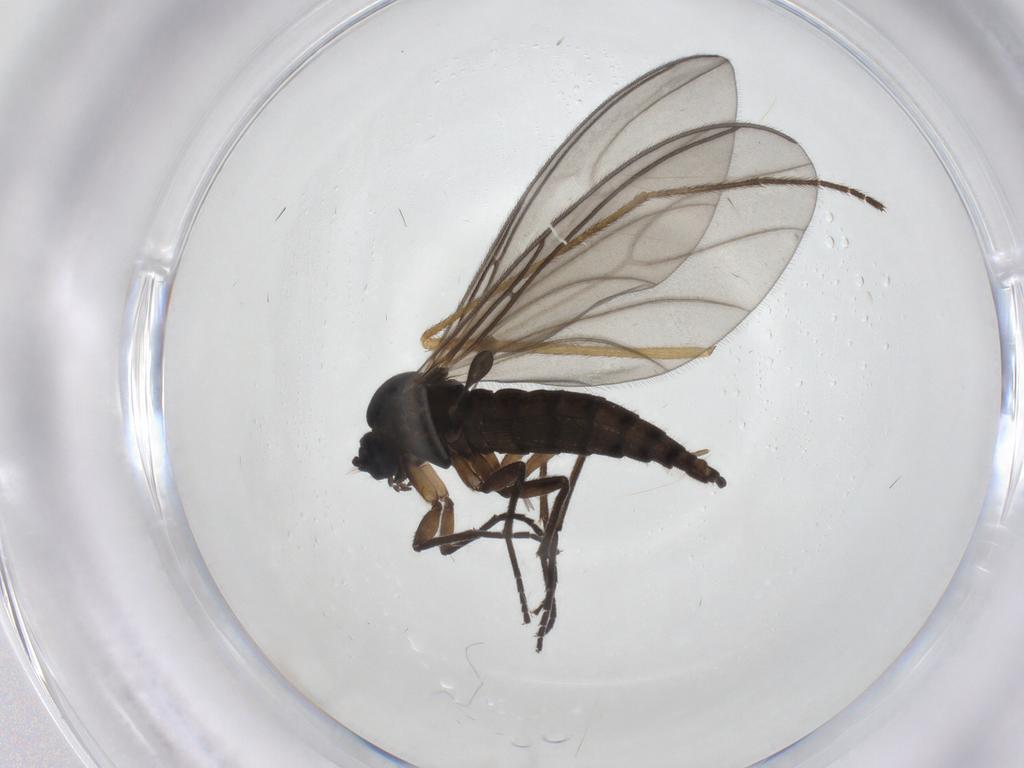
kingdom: Animalia
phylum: Arthropoda
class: Insecta
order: Diptera
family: Sciaridae
